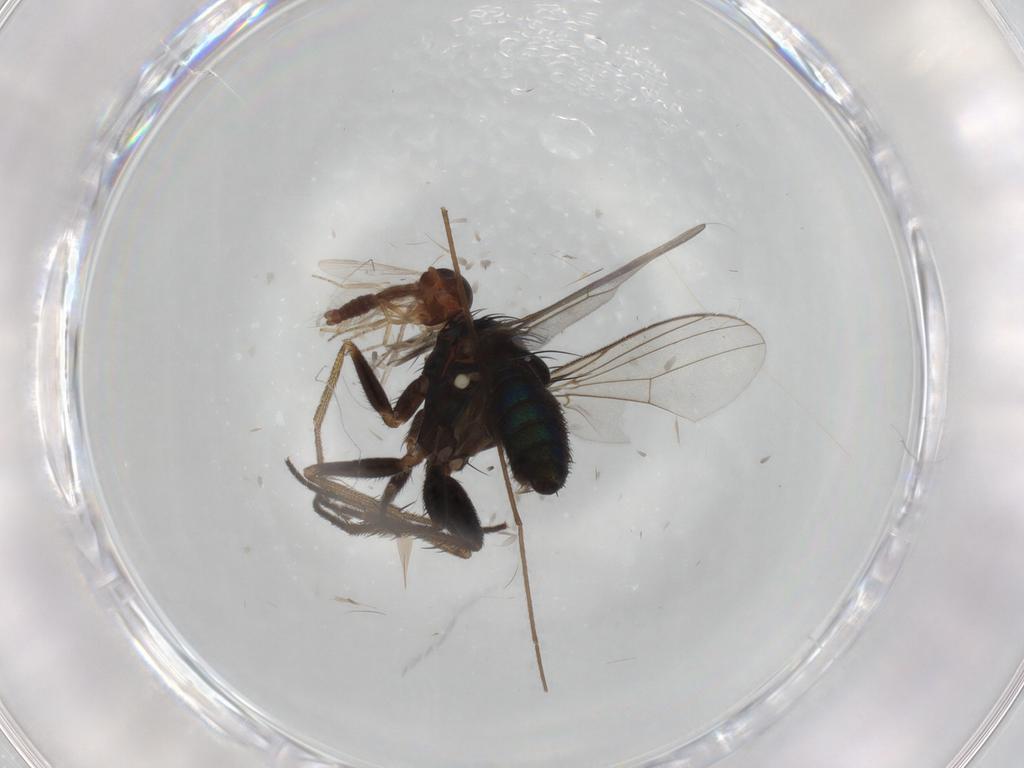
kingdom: Animalia
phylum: Arthropoda
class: Insecta
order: Diptera
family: Dolichopodidae
